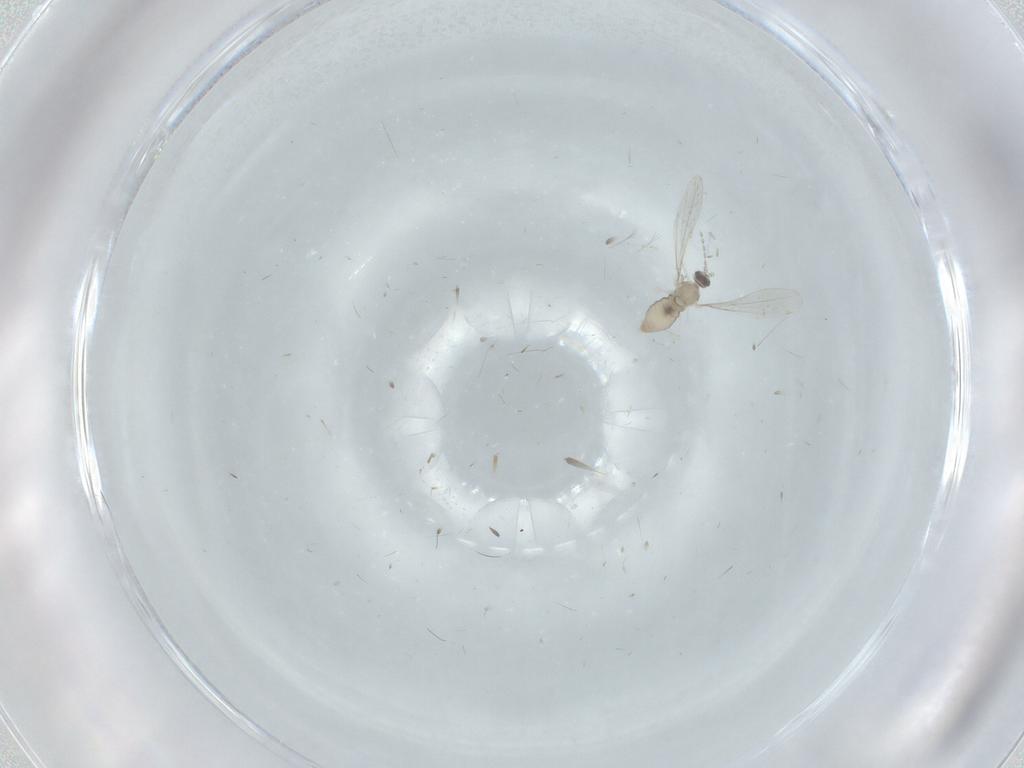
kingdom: Animalia
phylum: Arthropoda
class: Insecta
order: Diptera
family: Cecidomyiidae
